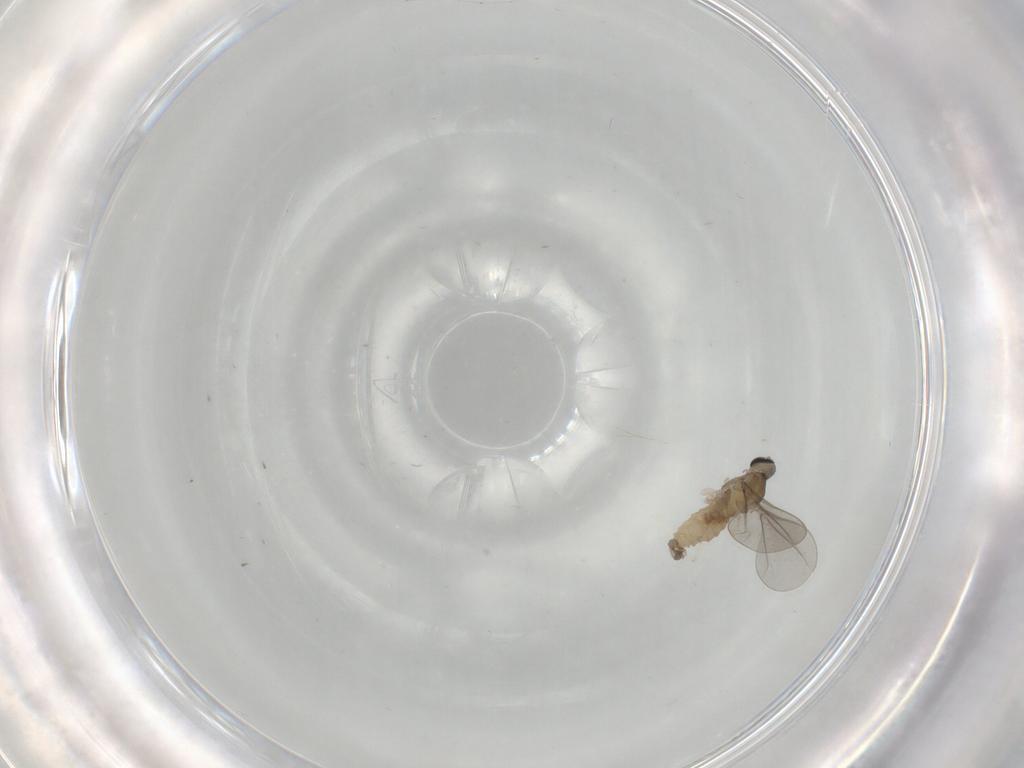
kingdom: Animalia
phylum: Arthropoda
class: Insecta
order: Diptera
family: Cecidomyiidae
